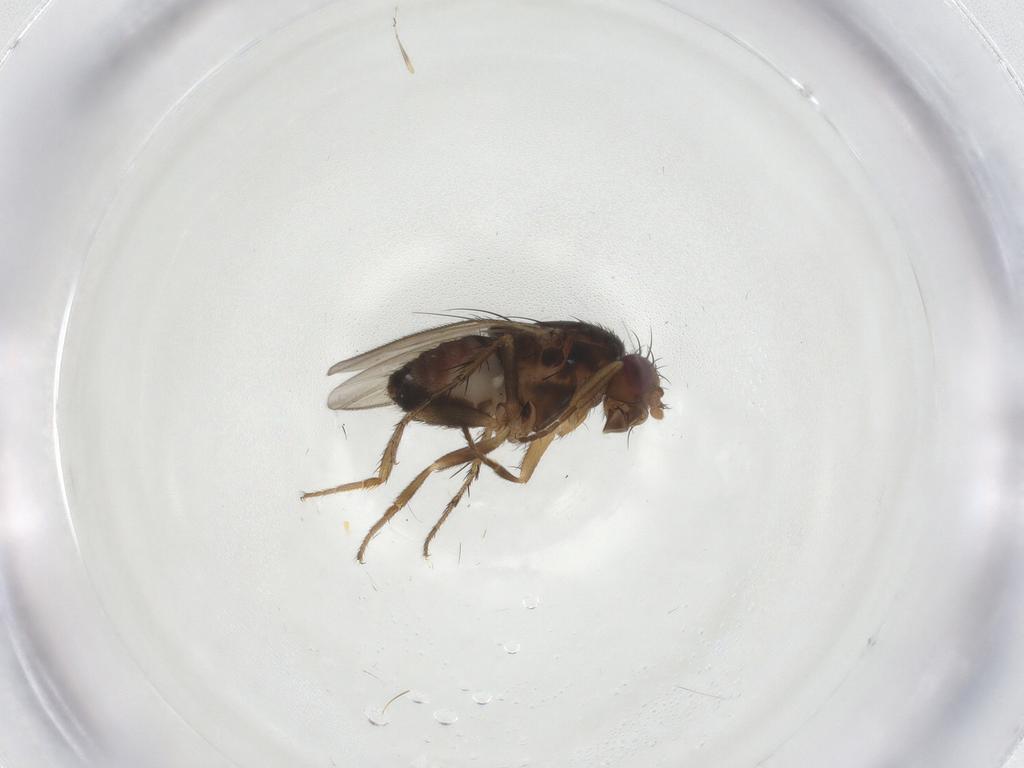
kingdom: Animalia
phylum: Arthropoda
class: Insecta
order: Diptera
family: Sphaeroceridae
